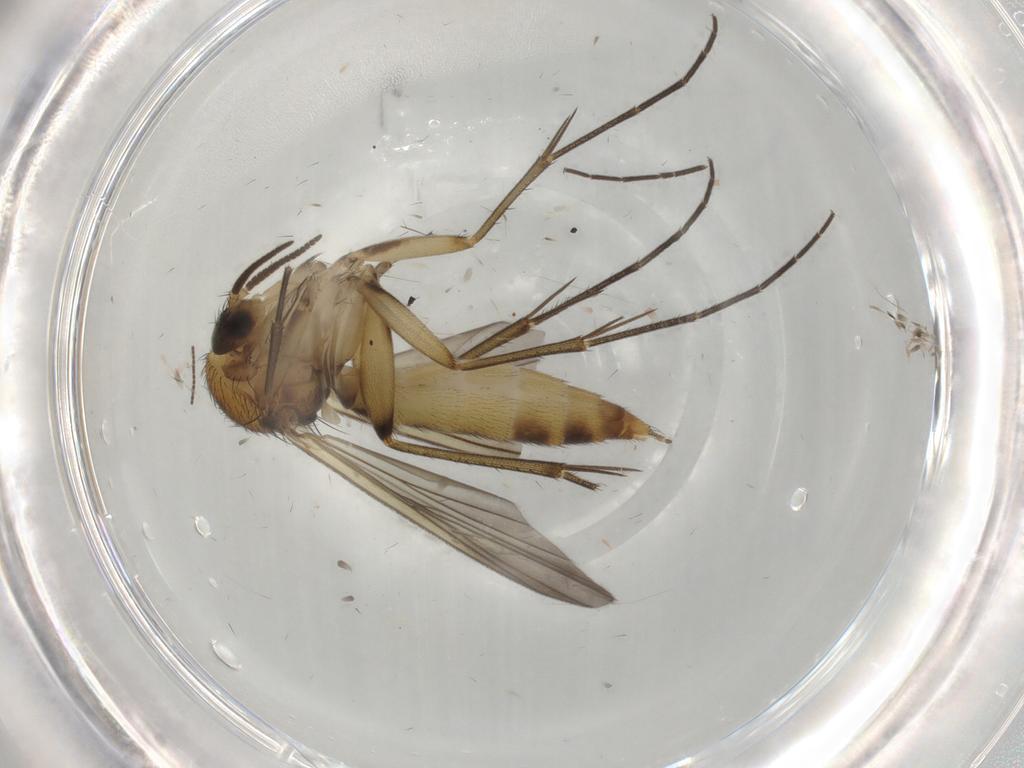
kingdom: Animalia
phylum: Arthropoda
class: Insecta
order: Diptera
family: Mycetophilidae
